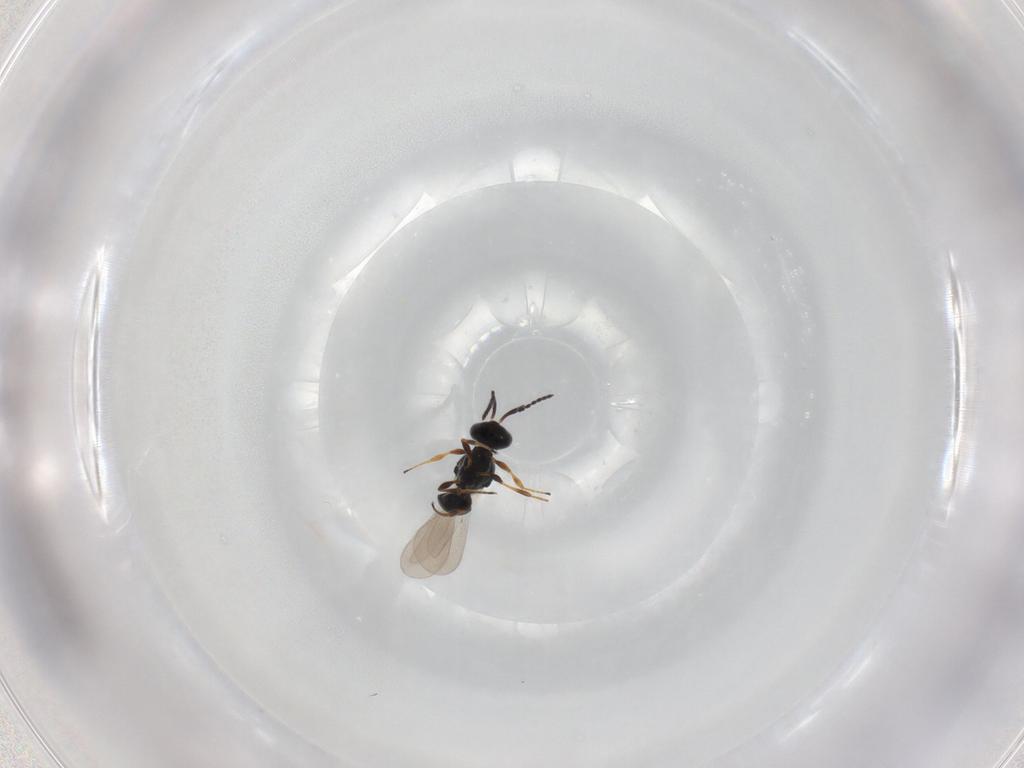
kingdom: Animalia
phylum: Arthropoda
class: Insecta
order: Hymenoptera
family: Platygastridae
